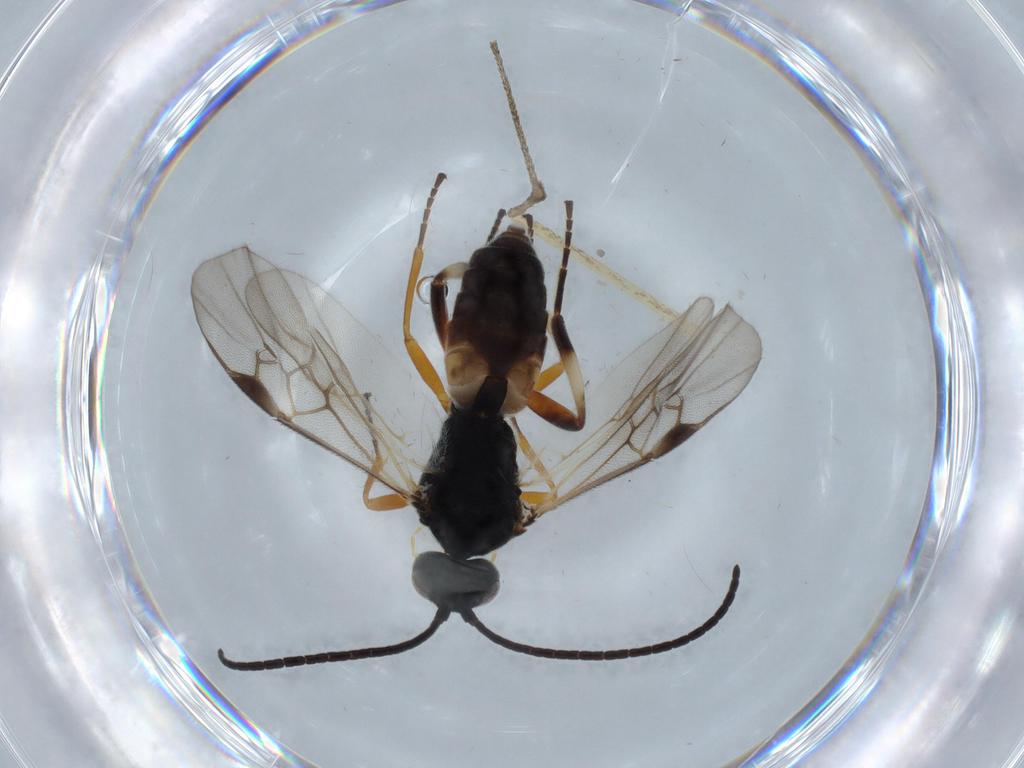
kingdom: Animalia
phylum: Arthropoda
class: Insecta
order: Hymenoptera
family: Braconidae
